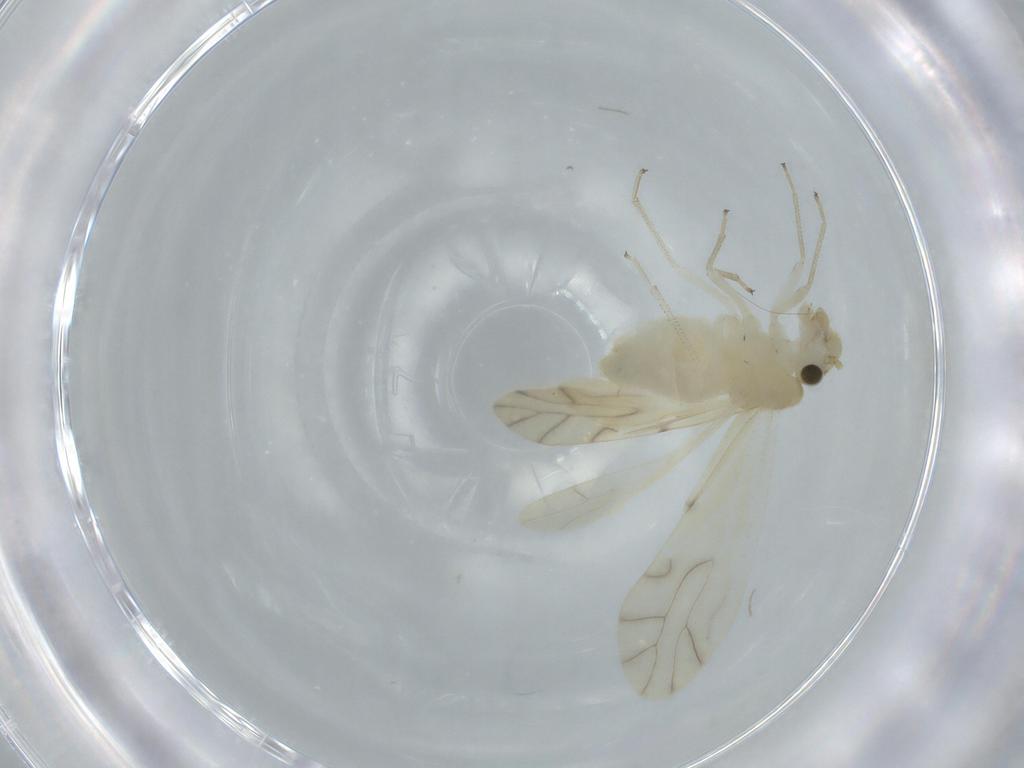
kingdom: Animalia
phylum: Arthropoda
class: Insecta
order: Psocodea
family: Caeciliusidae
